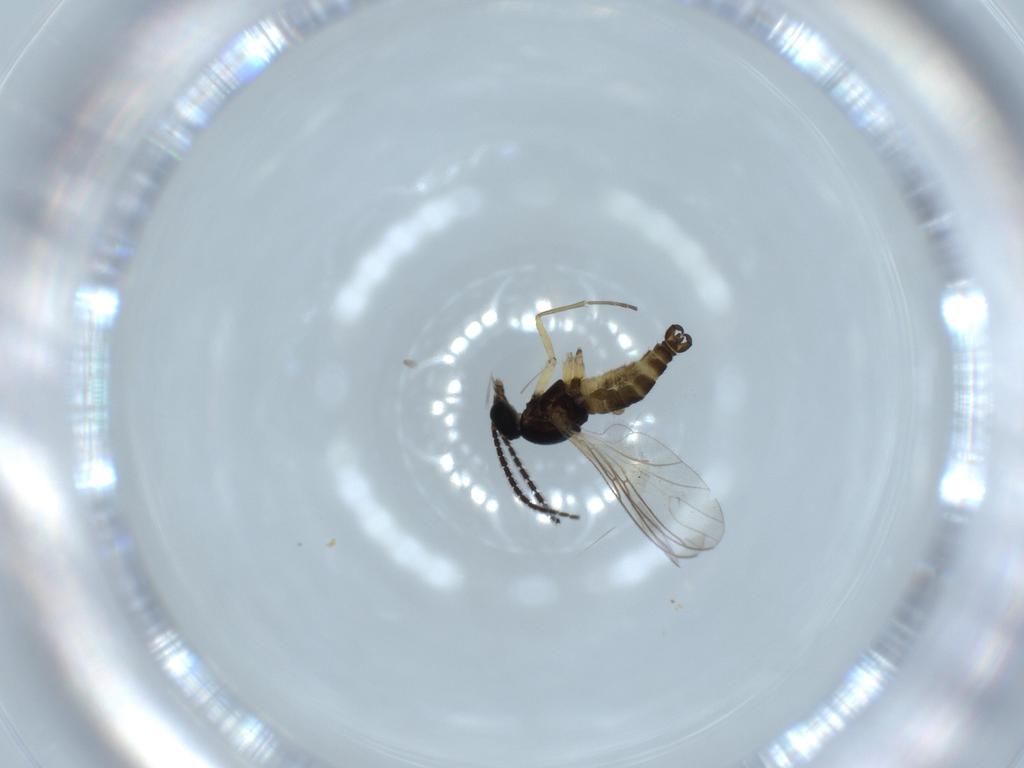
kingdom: Animalia
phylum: Arthropoda
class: Insecta
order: Diptera
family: Sciaridae
